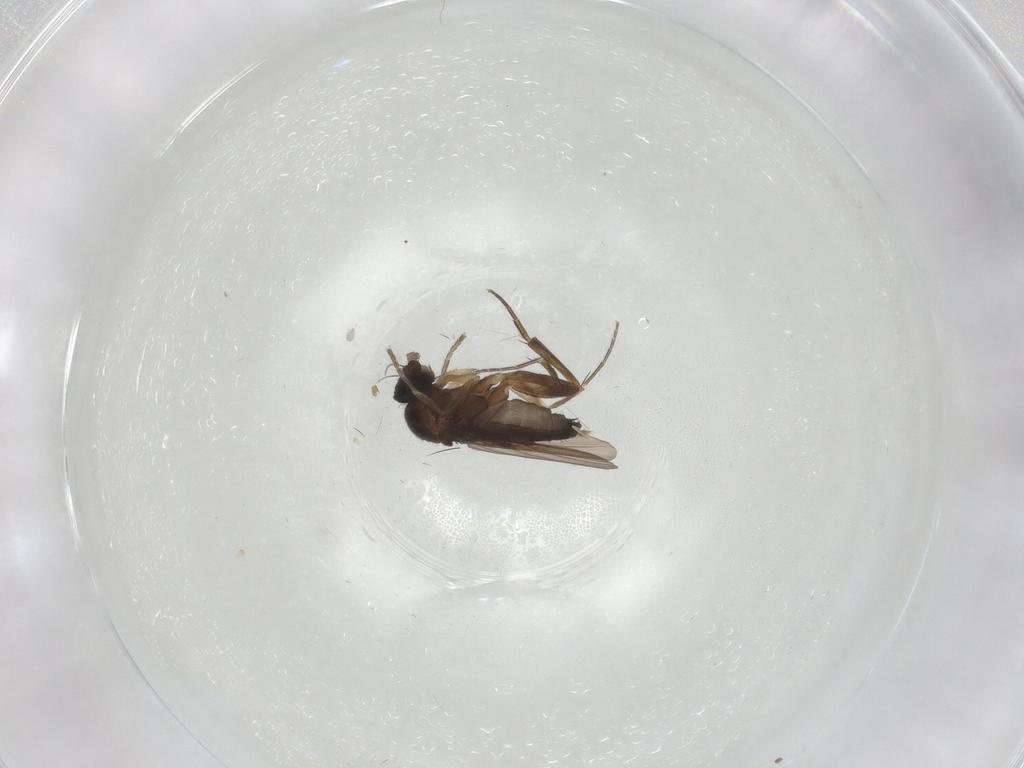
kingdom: Animalia
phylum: Arthropoda
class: Insecta
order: Diptera
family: Phoridae
